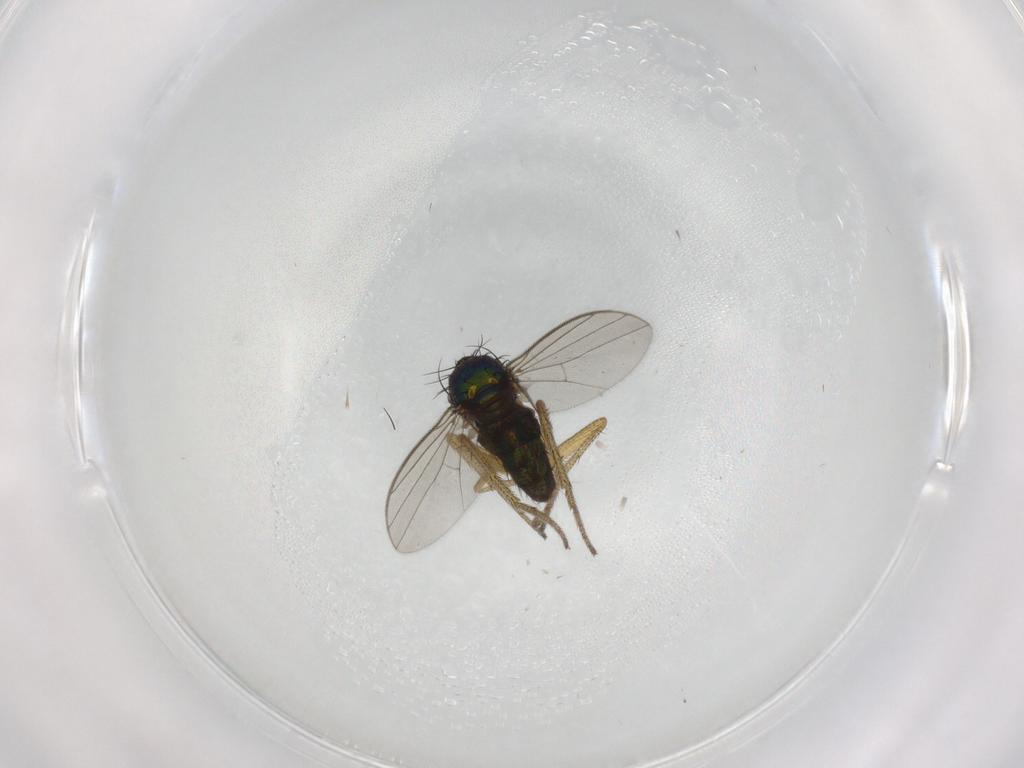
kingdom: Animalia
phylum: Arthropoda
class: Insecta
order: Diptera
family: Dolichopodidae
